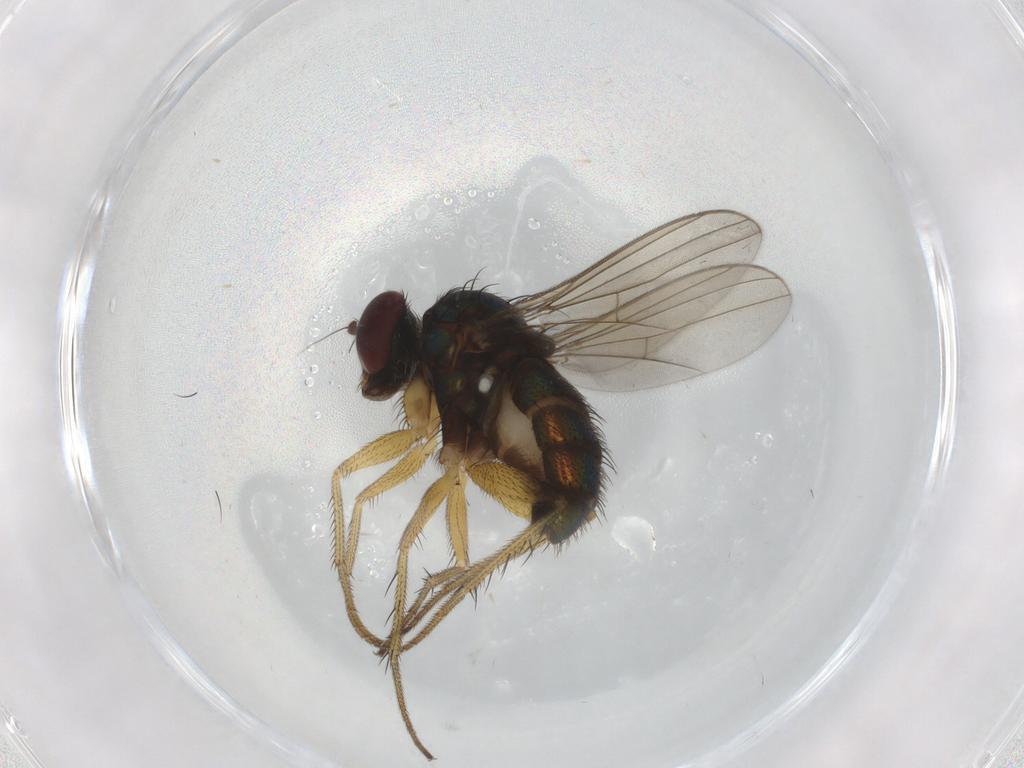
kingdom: Animalia
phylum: Arthropoda
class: Insecta
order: Diptera
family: Dolichopodidae
